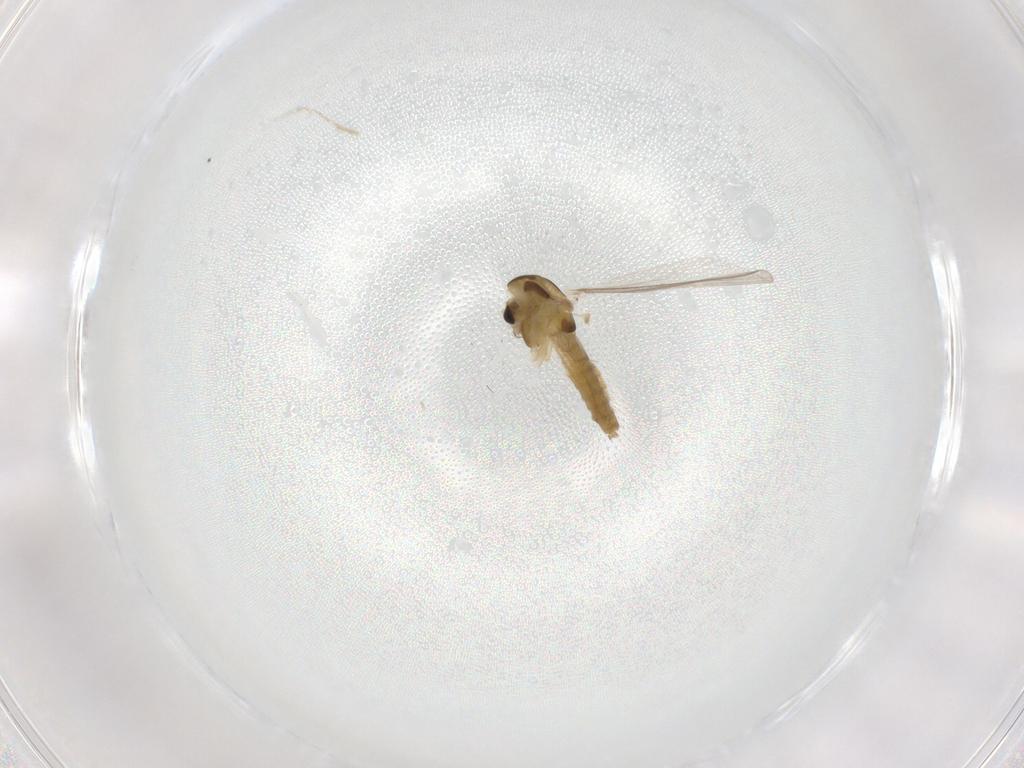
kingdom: Animalia
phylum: Arthropoda
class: Insecta
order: Diptera
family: Chironomidae
